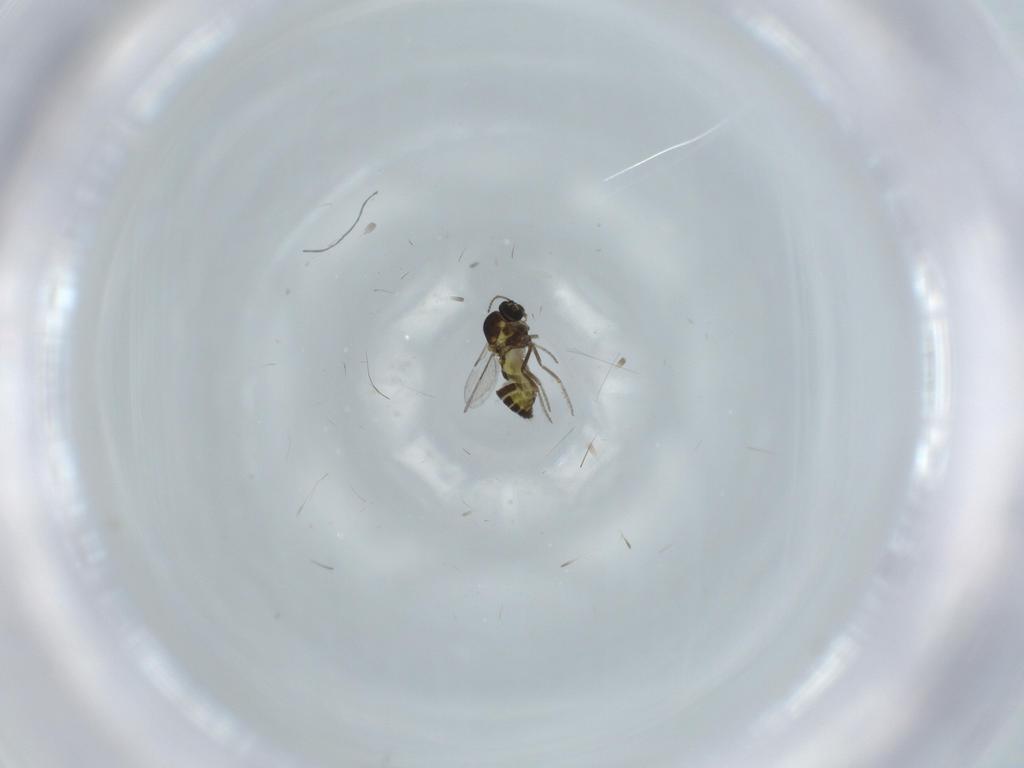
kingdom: Animalia
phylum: Arthropoda
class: Insecta
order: Diptera
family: Ceratopogonidae
